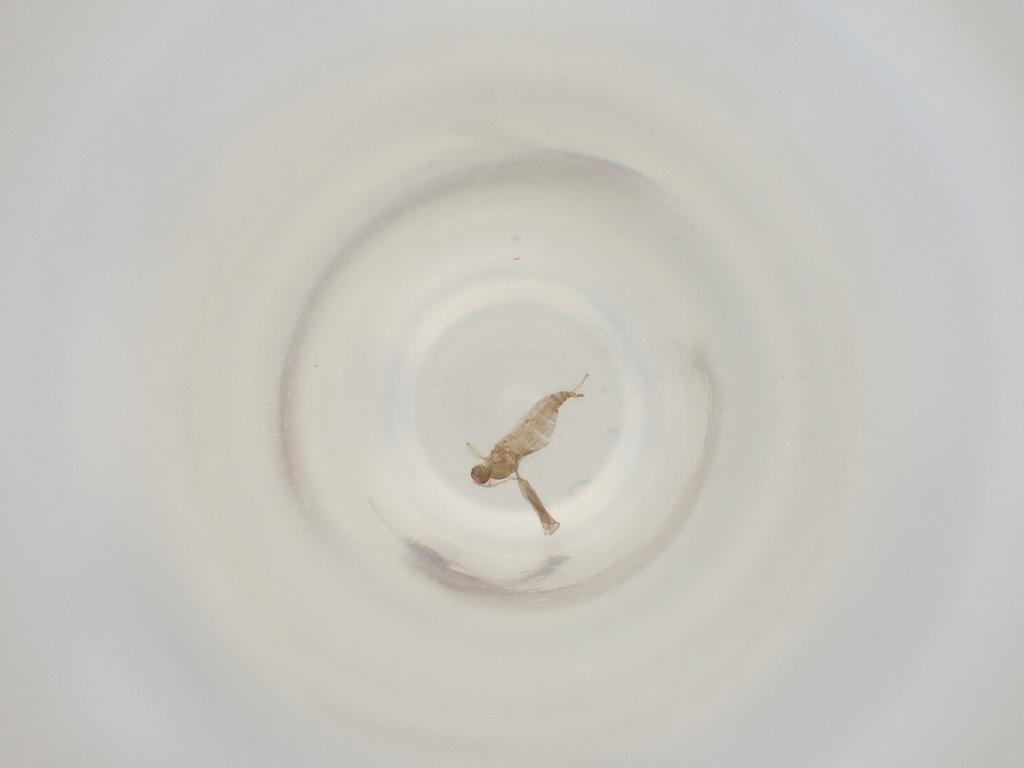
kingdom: Animalia
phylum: Arthropoda
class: Insecta
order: Diptera
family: Cecidomyiidae
